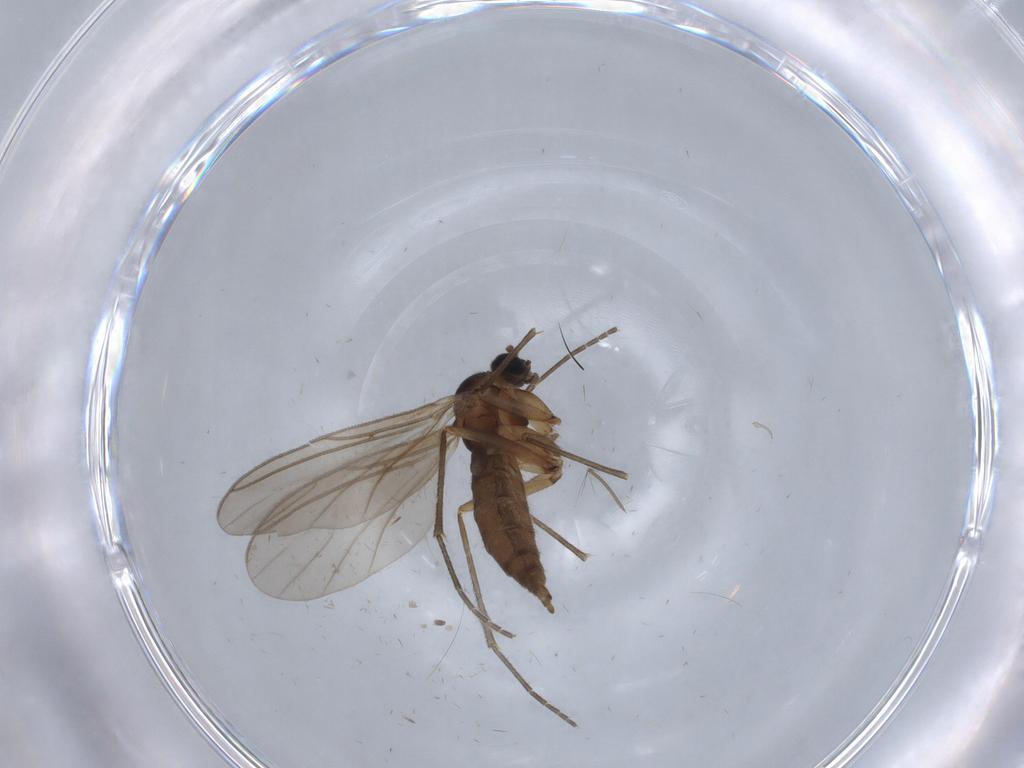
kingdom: Animalia
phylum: Arthropoda
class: Insecta
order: Diptera
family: Sciaridae
